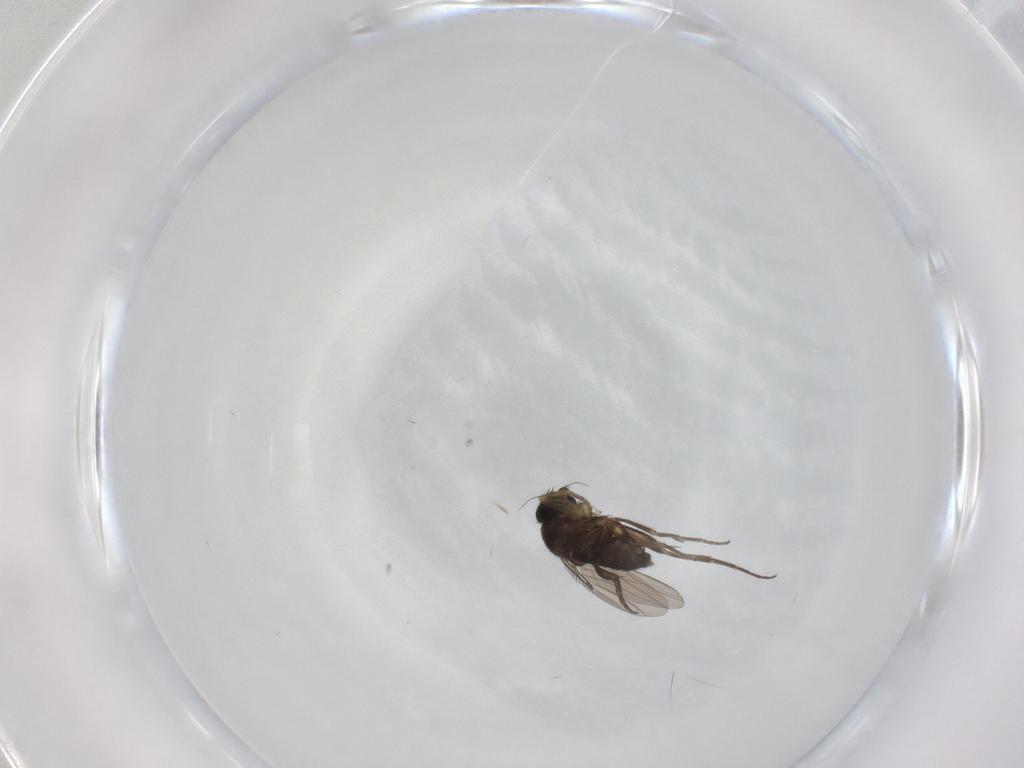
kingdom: Animalia
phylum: Arthropoda
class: Insecta
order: Diptera
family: Phoridae
